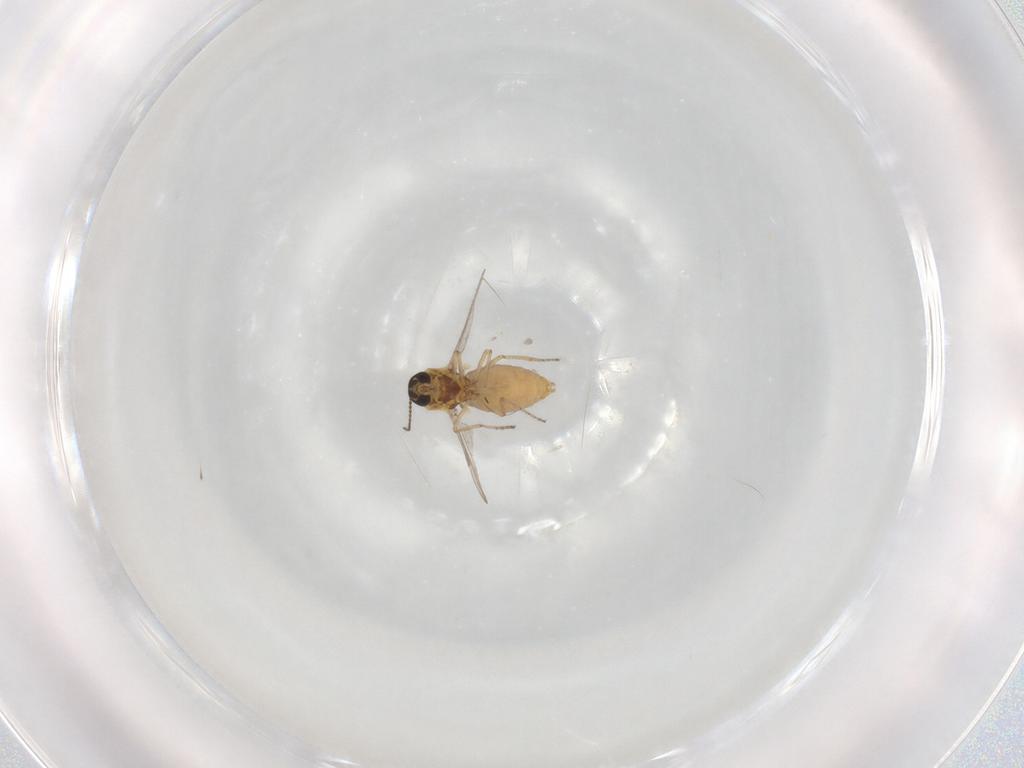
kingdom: Animalia
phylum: Arthropoda
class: Insecta
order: Diptera
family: Ceratopogonidae
